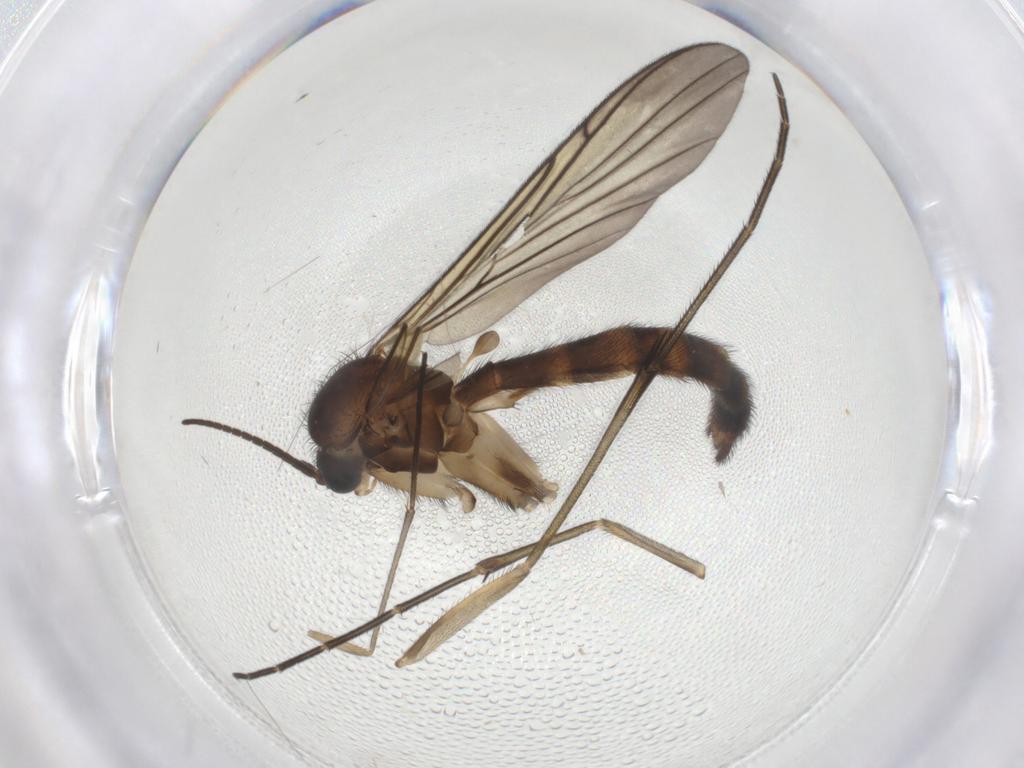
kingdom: Animalia
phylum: Arthropoda
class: Insecta
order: Diptera
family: Keroplatidae
